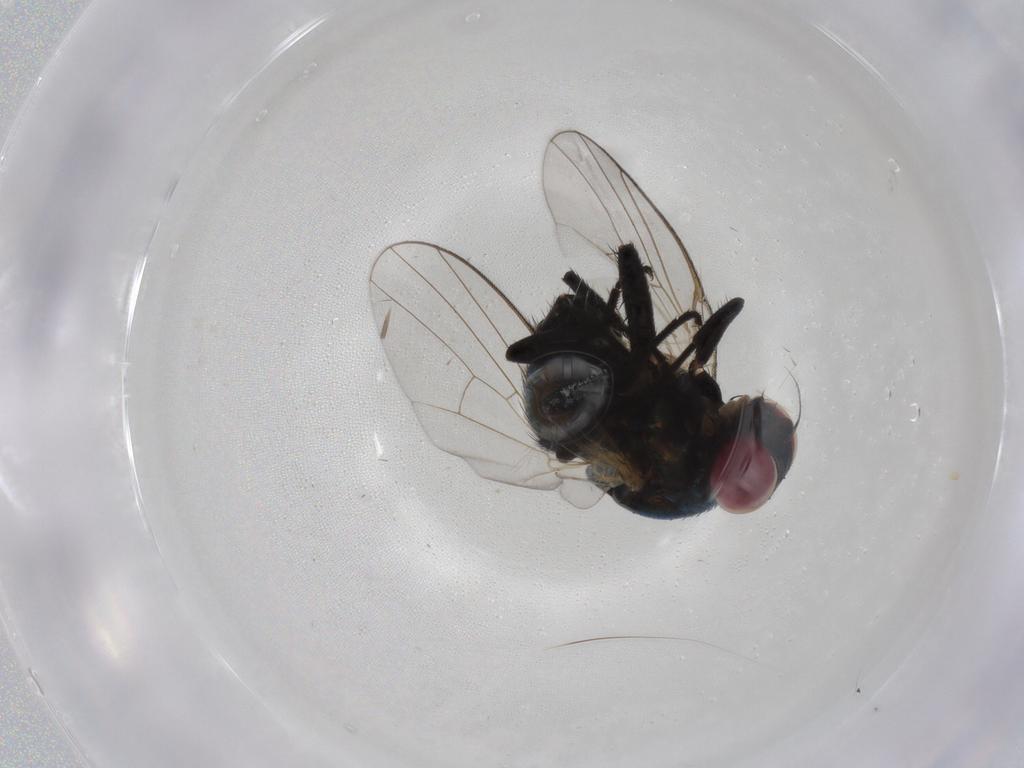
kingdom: Animalia
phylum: Arthropoda
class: Insecta
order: Diptera
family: Agromyzidae
